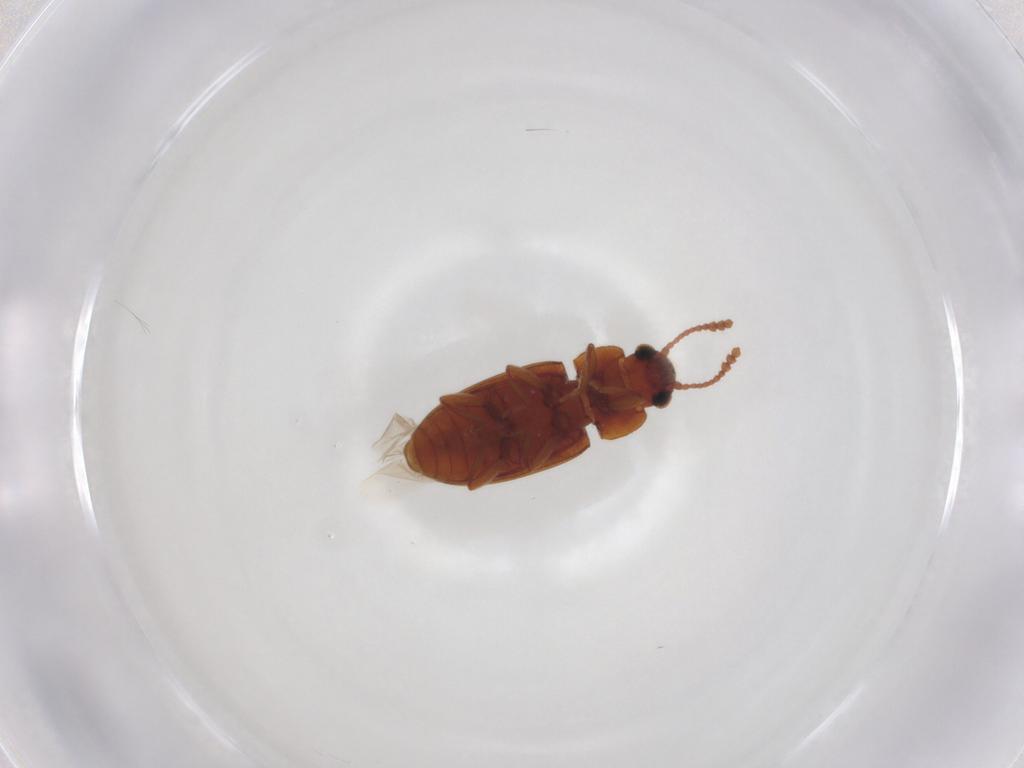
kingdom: Animalia
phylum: Arthropoda
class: Insecta
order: Coleoptera
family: Erotylidae
